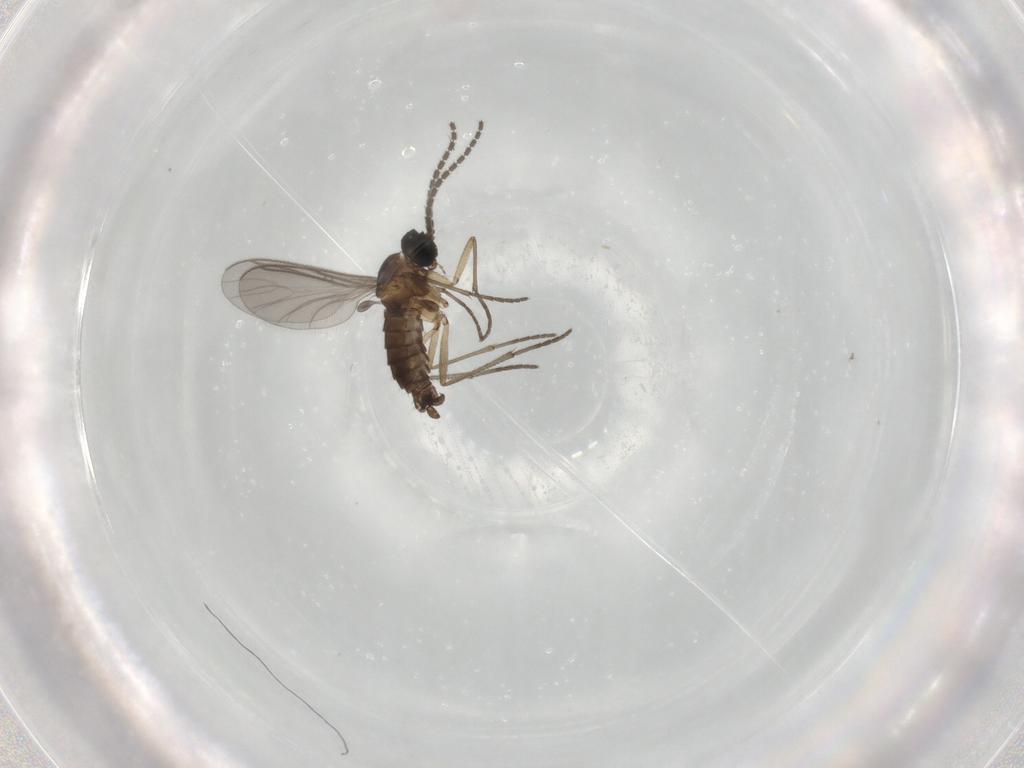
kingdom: Animalia
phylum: Arthropoda
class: Insecta
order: Diptera
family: Sciaridae
